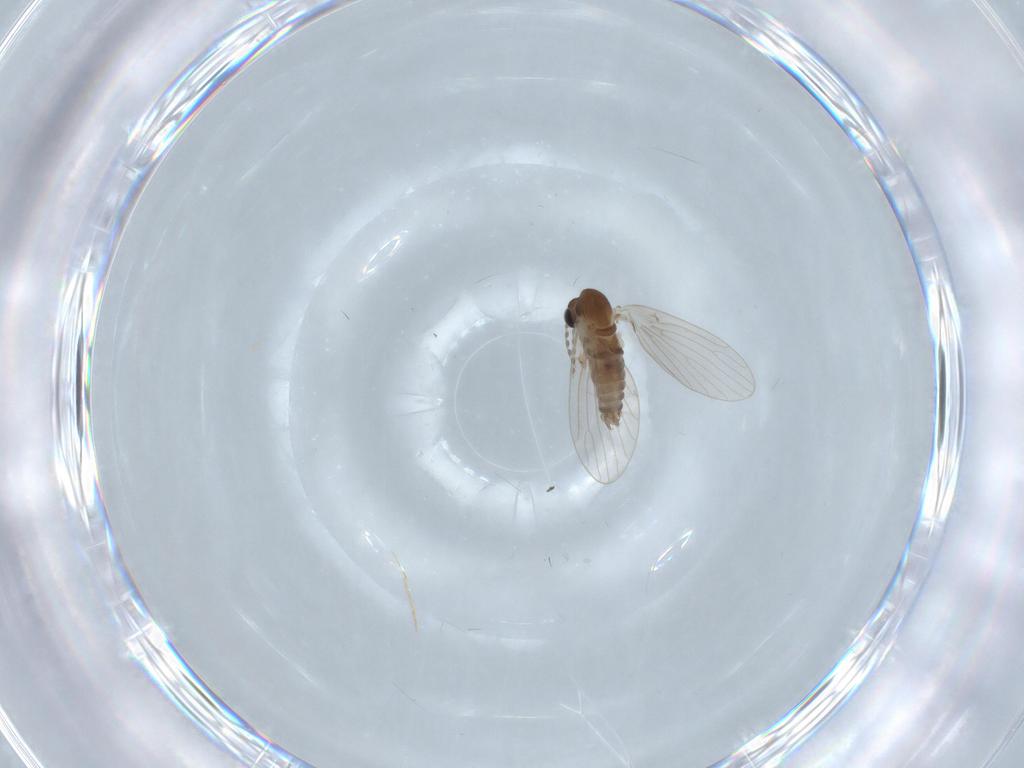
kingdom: Animalia
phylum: Arthropoda
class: Insecta
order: Diptera
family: Psychodidae
